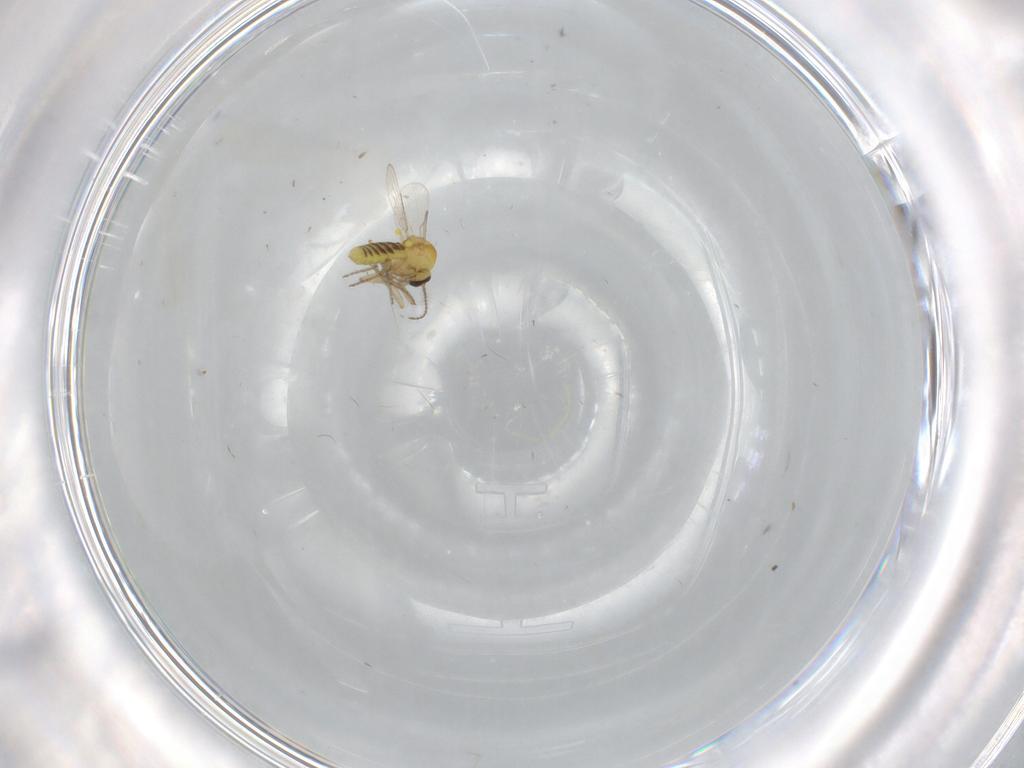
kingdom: Animalia
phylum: Arthropoda
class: Insecta
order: Diptera
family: Ceratopogonidae
